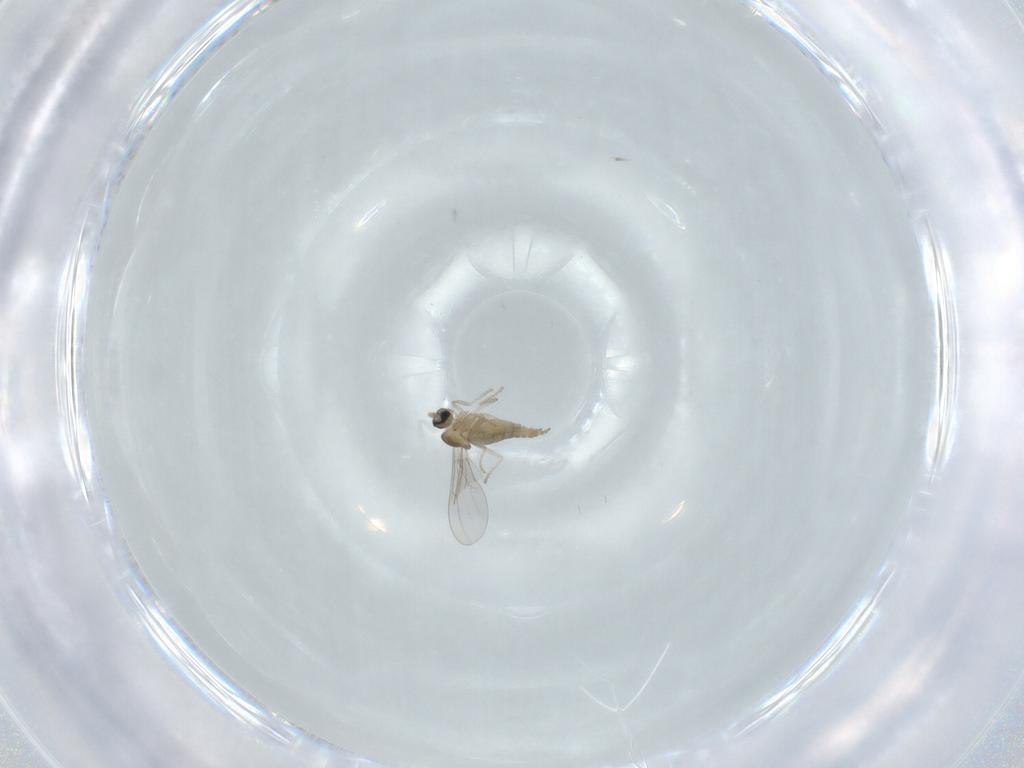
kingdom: Animalia
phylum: Arthropoda
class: Insecta
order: Diptera
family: Cecidomyiidae
